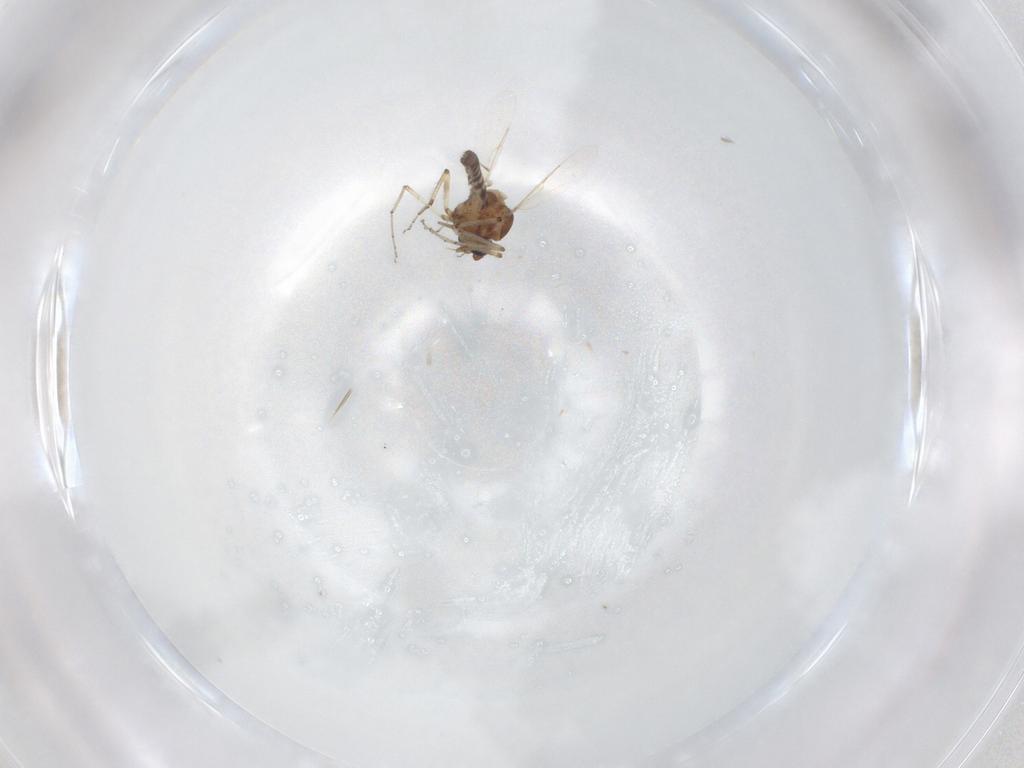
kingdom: Animalia
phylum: Arthropoda
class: Insecta
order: Diptera
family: Ceratopogonidae
